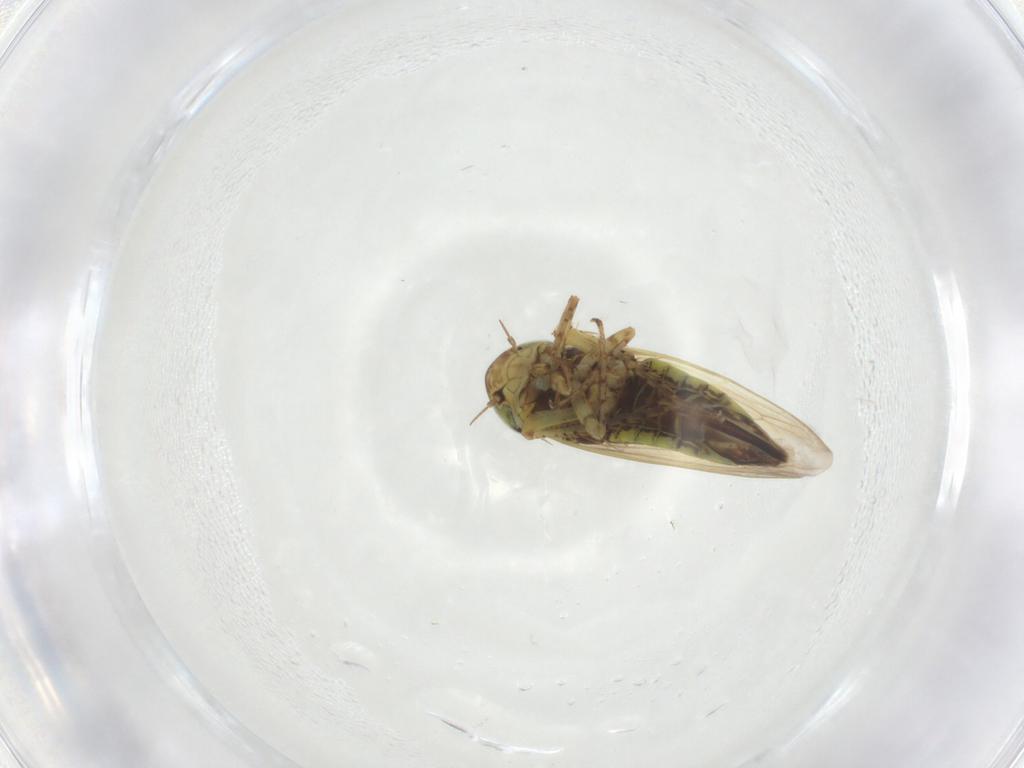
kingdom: Animalia
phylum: Arthropoda
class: Insecta
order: Hemiptera
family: Cicadellidae
